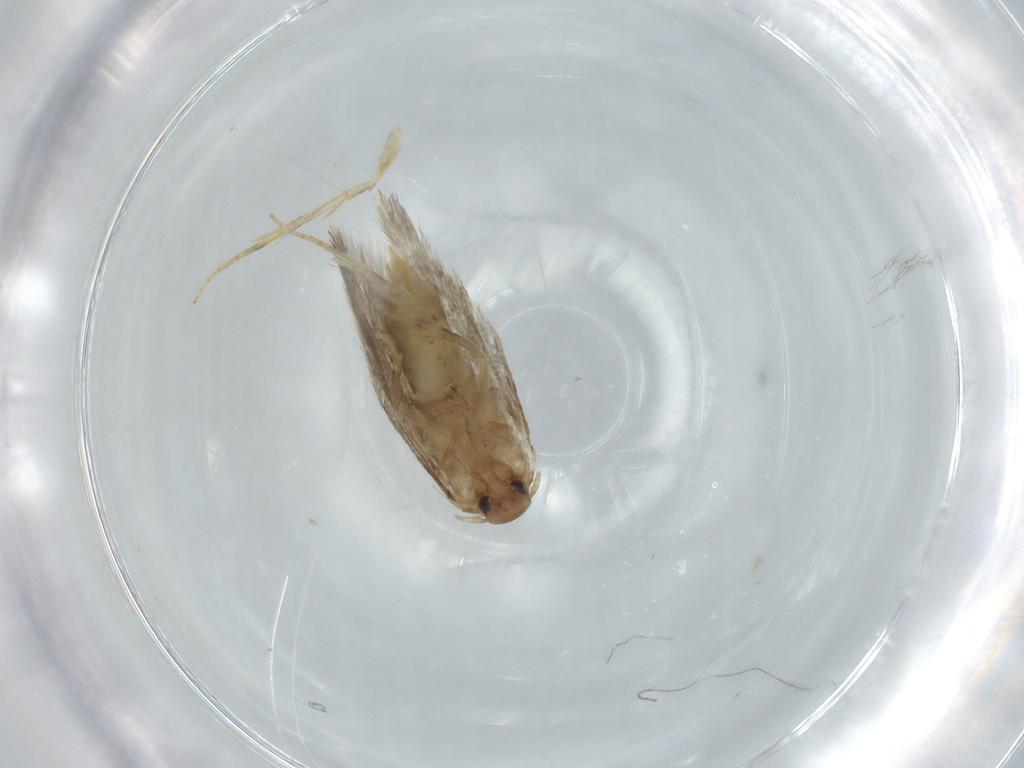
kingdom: Animalia
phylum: Arthropoda
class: Insecta
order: Lepidoptera
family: Elachistidae
